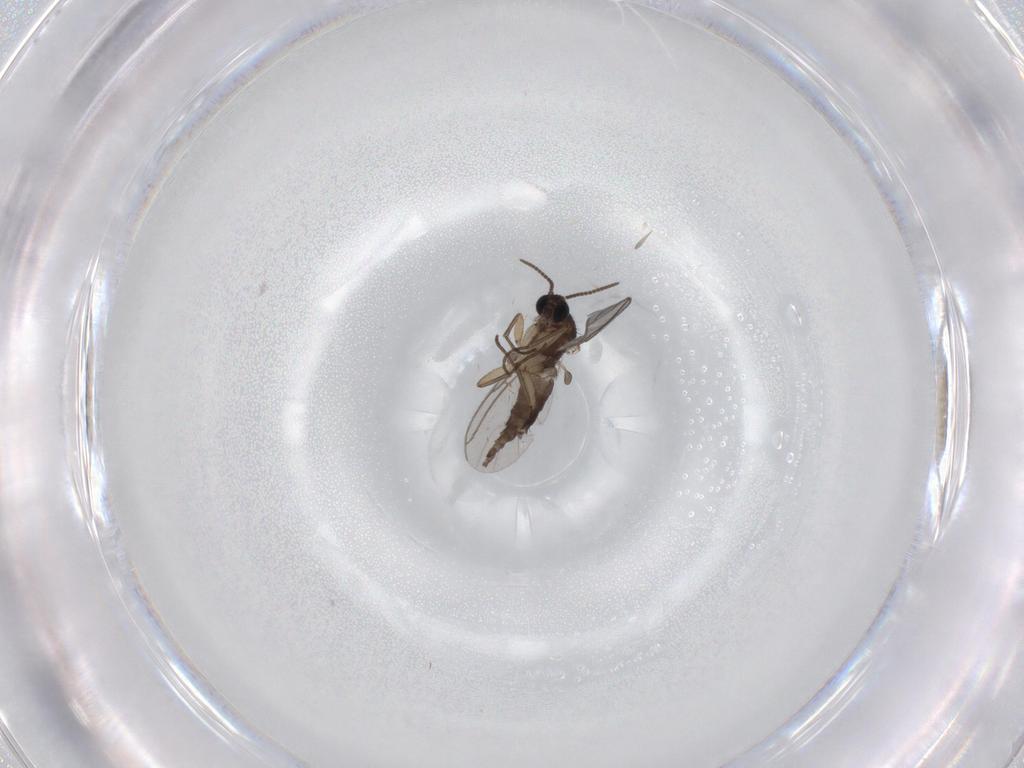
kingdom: Animalia
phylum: Arthropoda
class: Insecta
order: Diptera
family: Sciaridae
